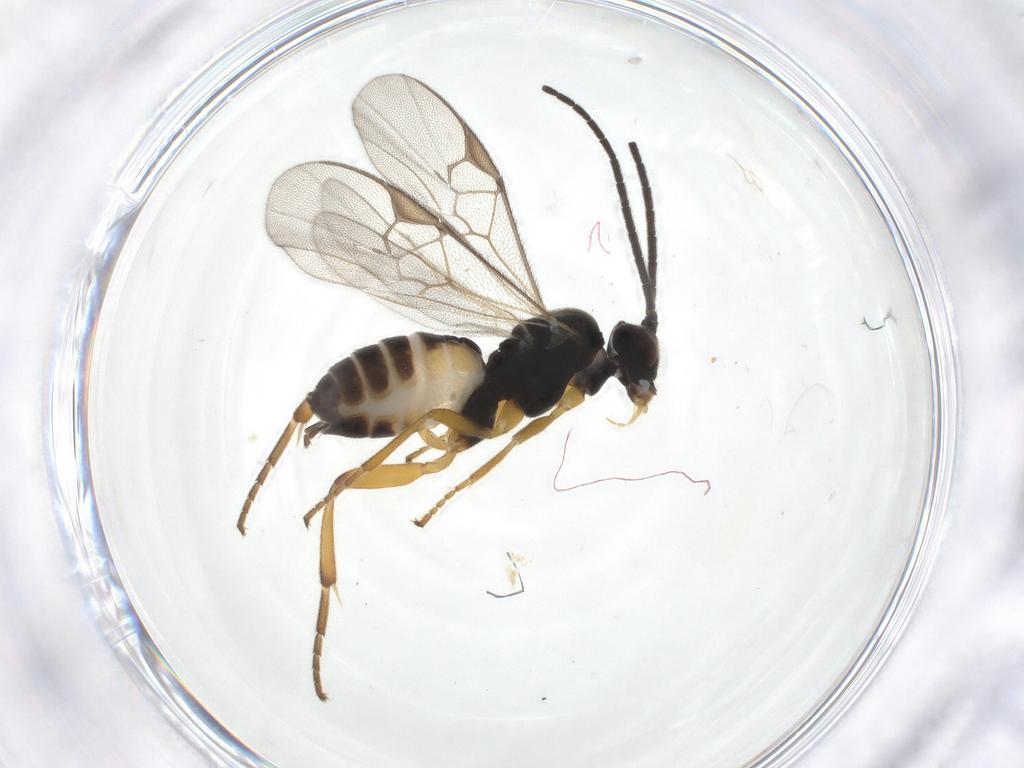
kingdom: Animalia
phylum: Arthropoda
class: Insecta
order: Hymenoptera
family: Braconidae
